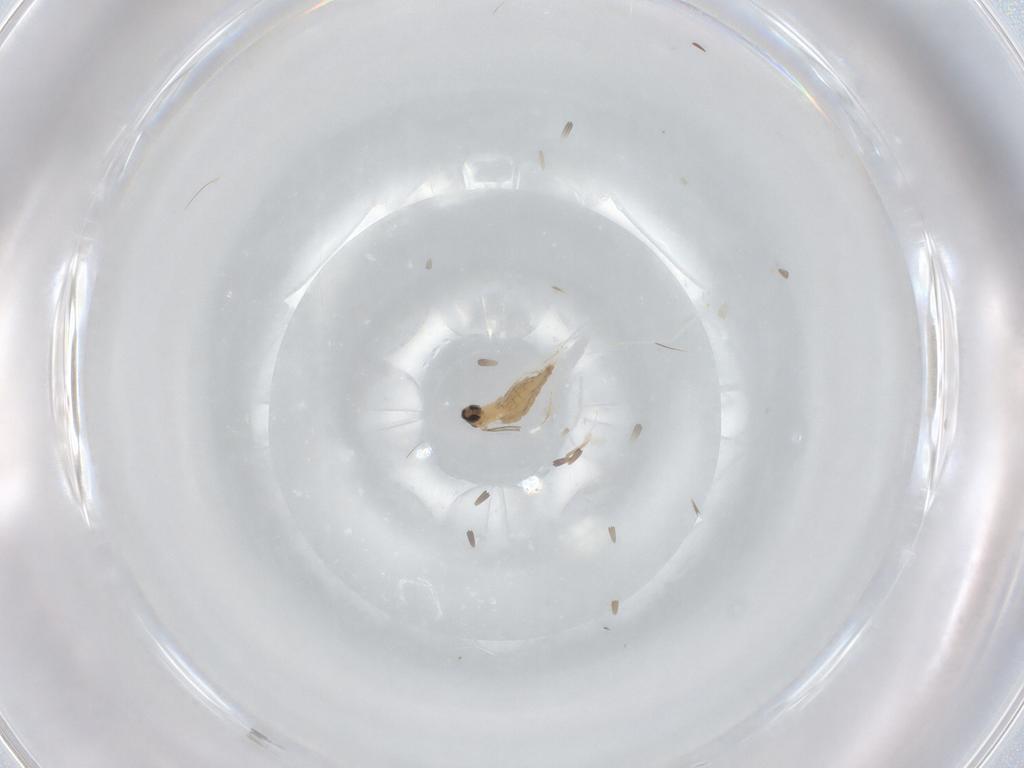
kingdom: Animalia
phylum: Arthropoda
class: Insecta
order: Diptera
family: Cecidomyiidae
